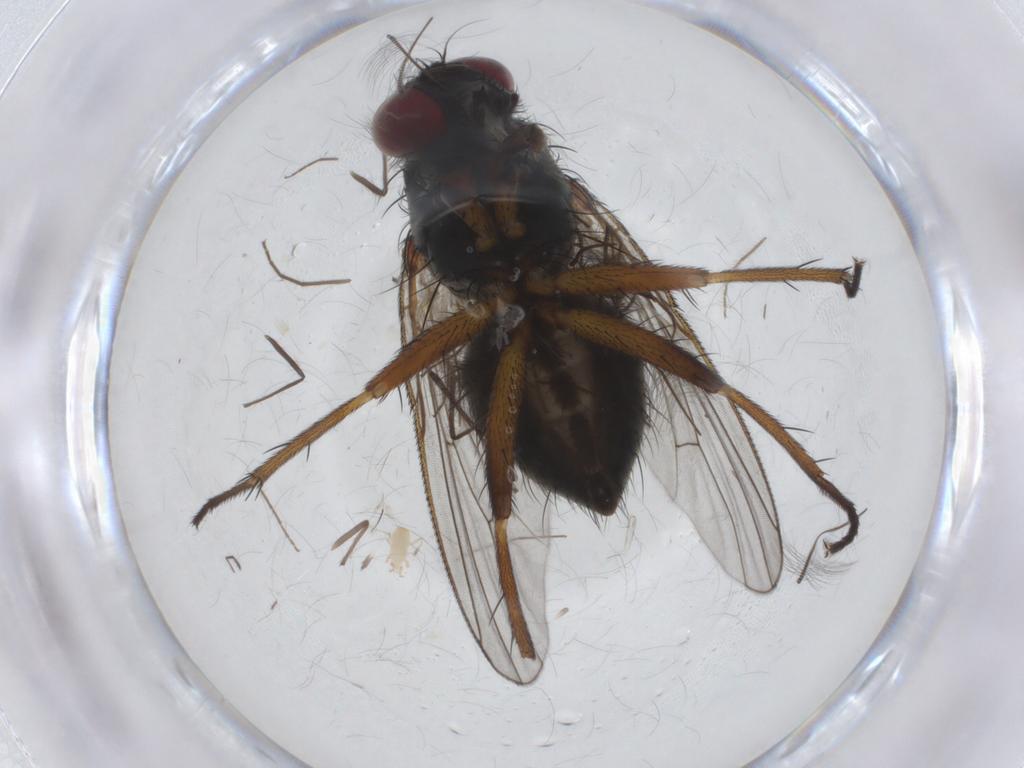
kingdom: Animalia
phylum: Arthropoda
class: Insecta
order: Diptera
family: Muscidae
